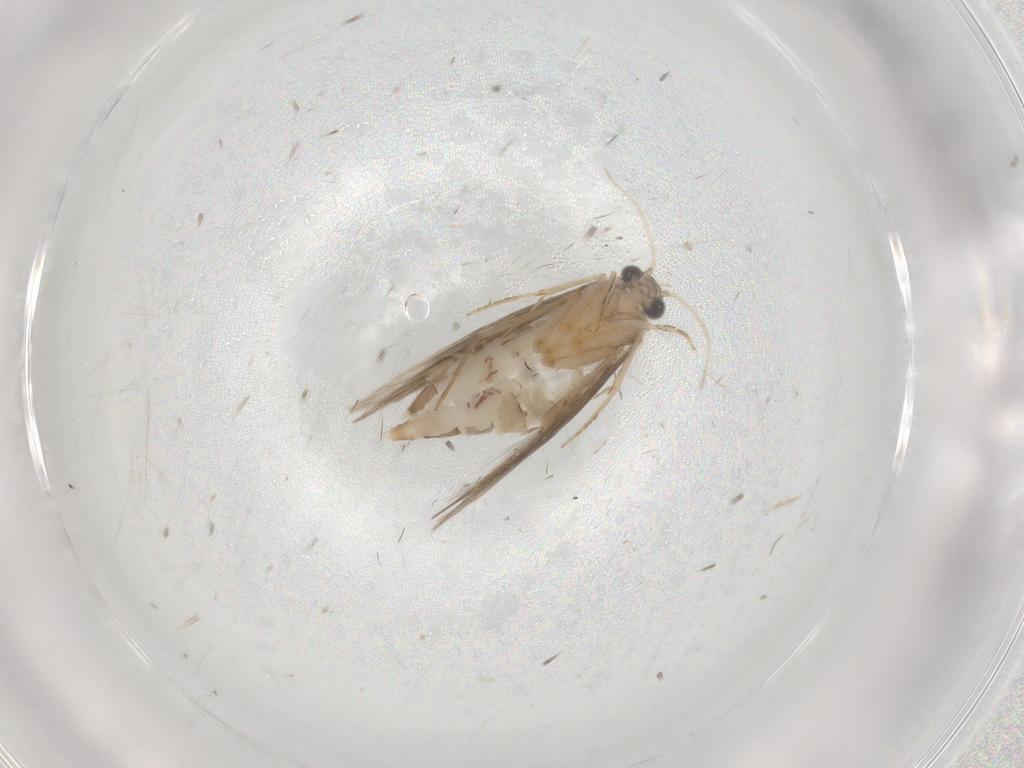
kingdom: Animalia
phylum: Arthropoda
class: Insecta
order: Trichoptera
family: Hydroptilidae
